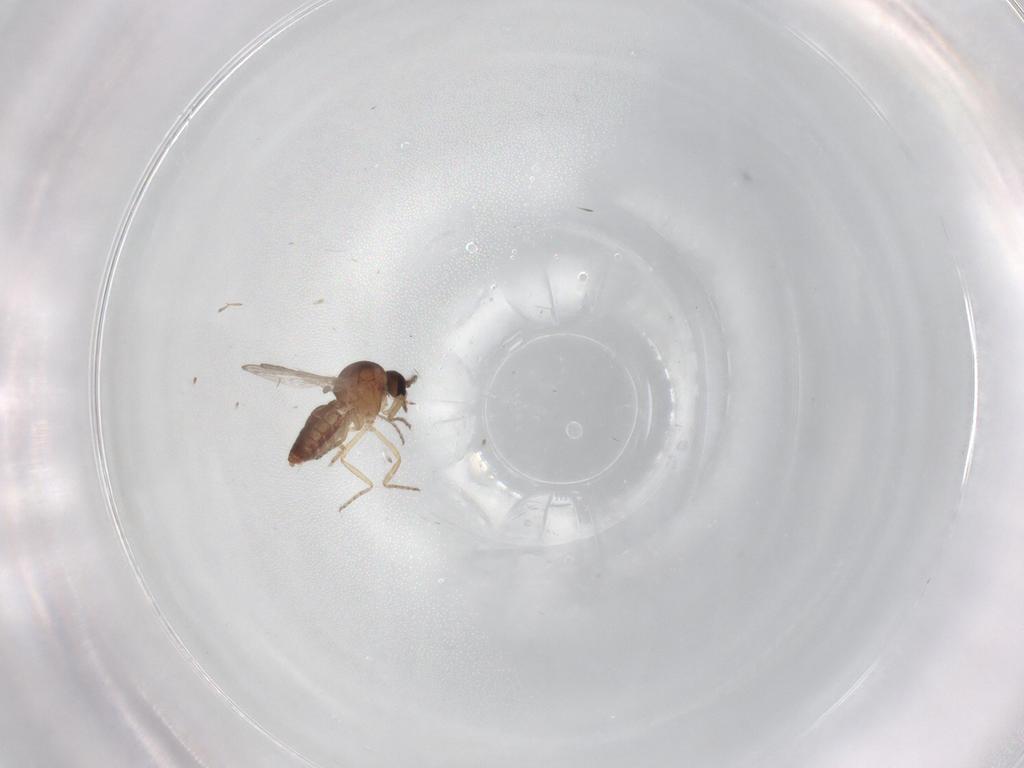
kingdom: Animalia
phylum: Arthropoda
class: Insecta
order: Diptera
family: Ceratopogonidae
